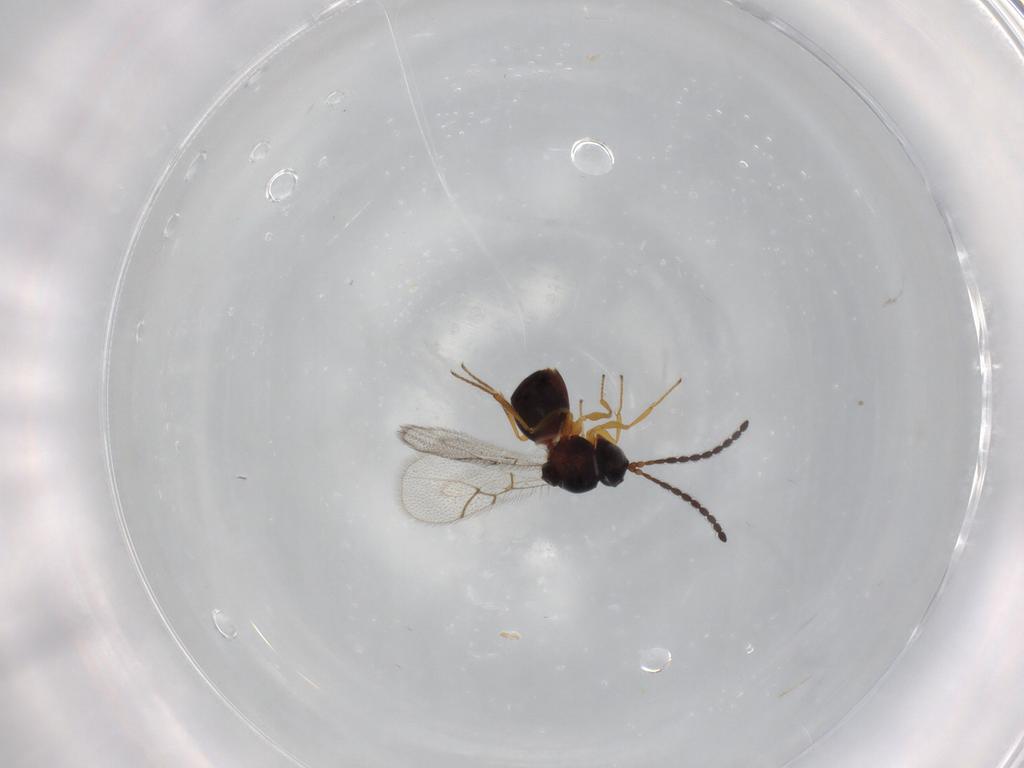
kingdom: Animalia
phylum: Arthropoda
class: Insecta
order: Hymenoptera
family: Figitidae
